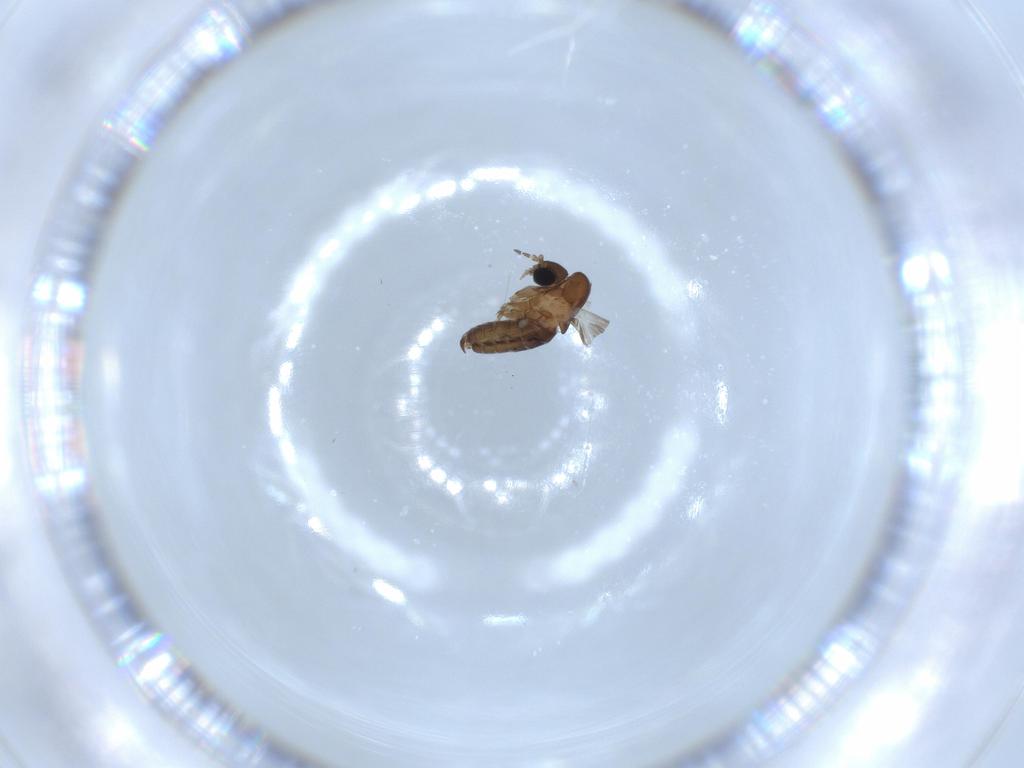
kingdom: Animalia
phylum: Arthropoda
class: Insecta
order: Diptera
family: Psychodidae
